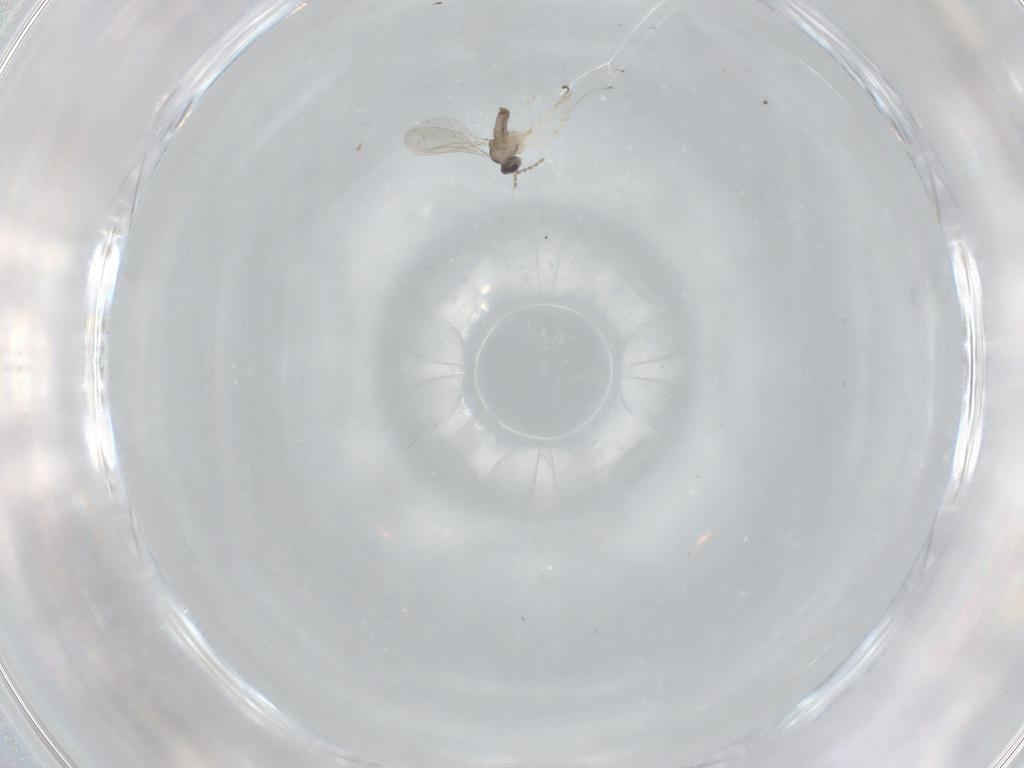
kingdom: Animalia
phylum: Arthropoda
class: Insecta
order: Diptera
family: Cecidomyiidae
